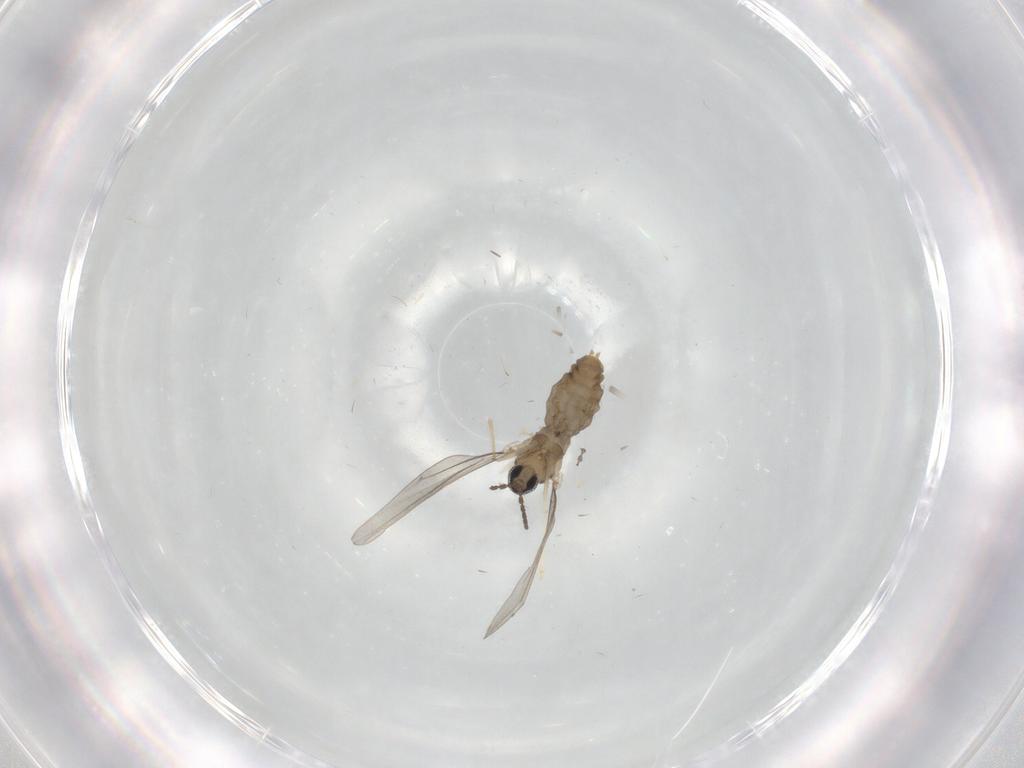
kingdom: Animalia
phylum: Arthropoda
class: Insecta
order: Diptera
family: Cecidomyiidae
